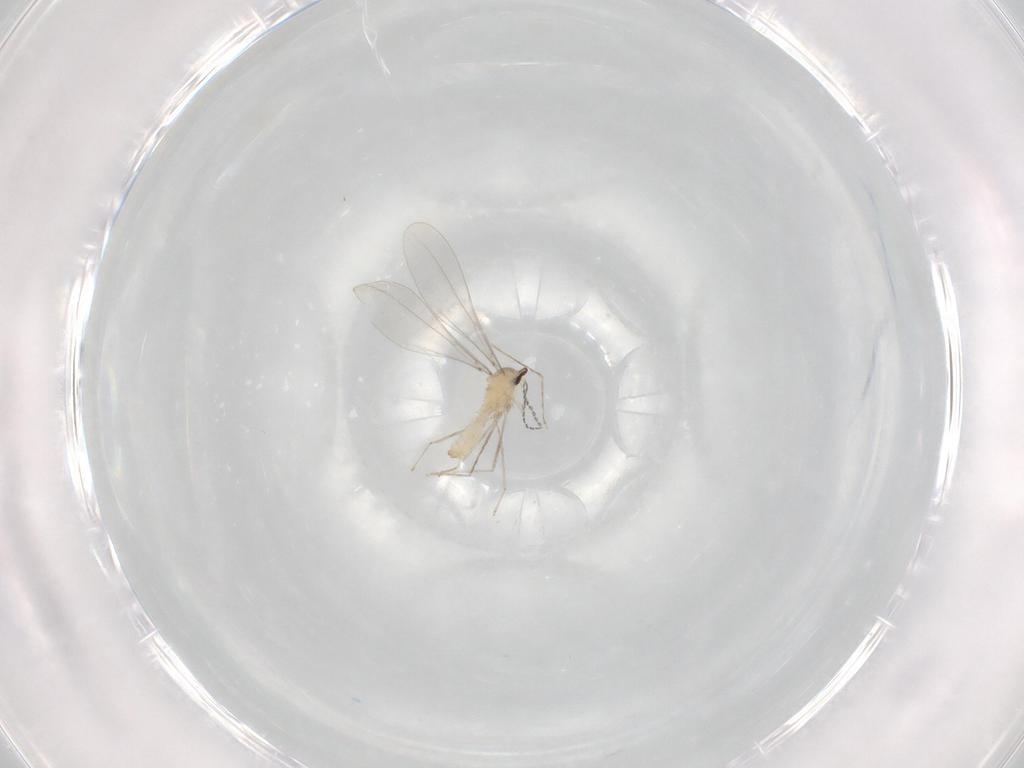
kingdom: Animalia
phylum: Arthropoda
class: Insecta
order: Diptera
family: Cecidomyiidae
